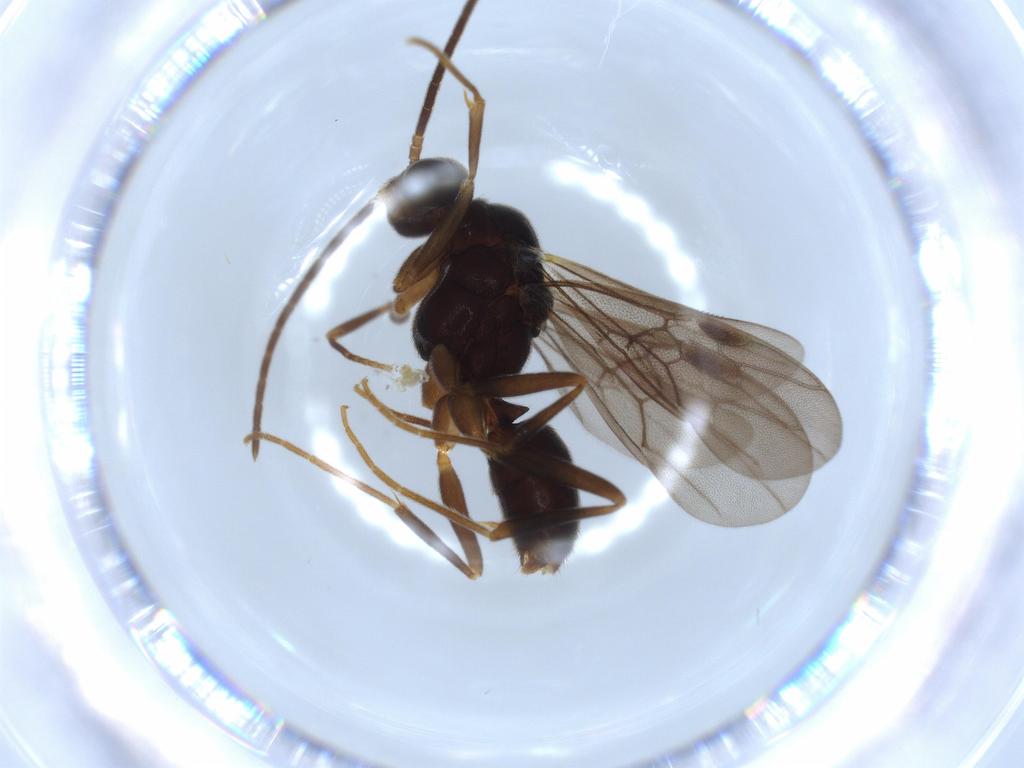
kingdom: Animalia
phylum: Arthropoda
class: Insecta
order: Hymenoptera
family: Formicidae
